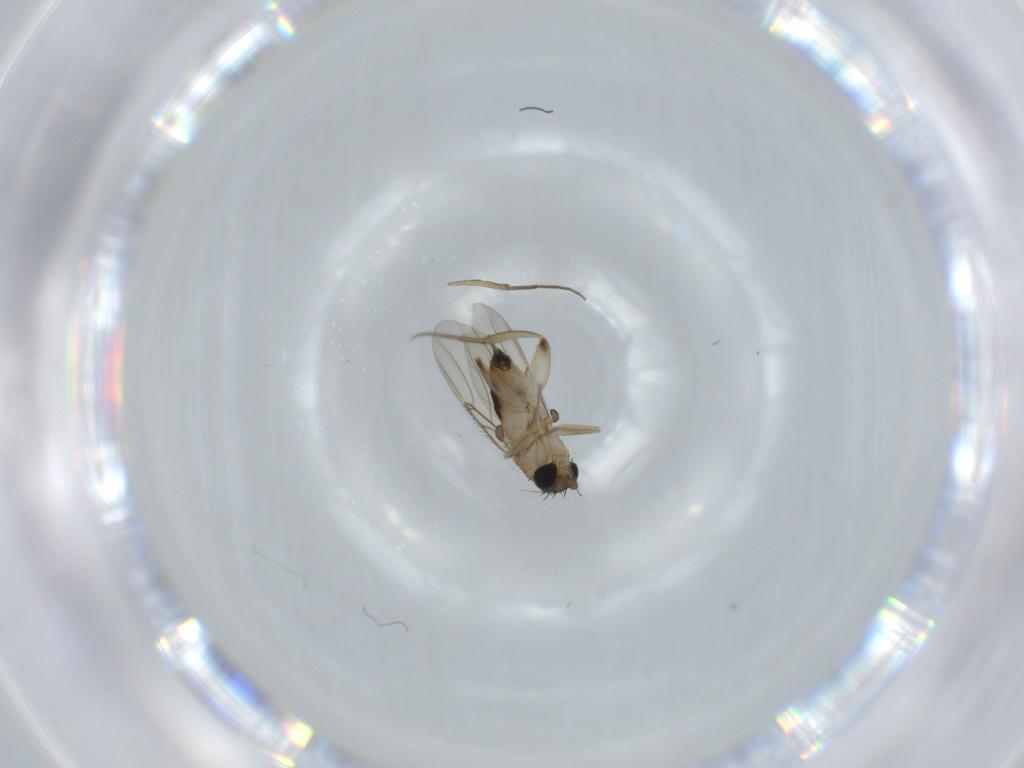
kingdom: Animalia
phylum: Arthropoda
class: Insecta
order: Diptera
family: Phoridae
